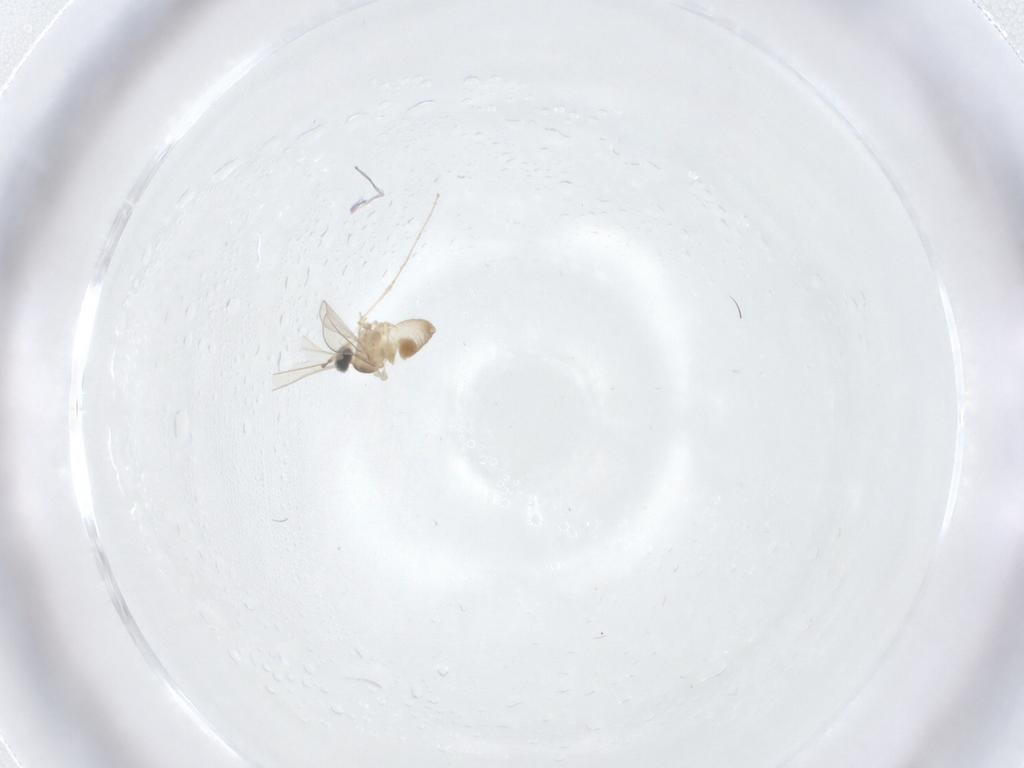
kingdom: Animalia
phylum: Arthropoda
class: Insecta
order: Diptera
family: Cecidomyiidae
